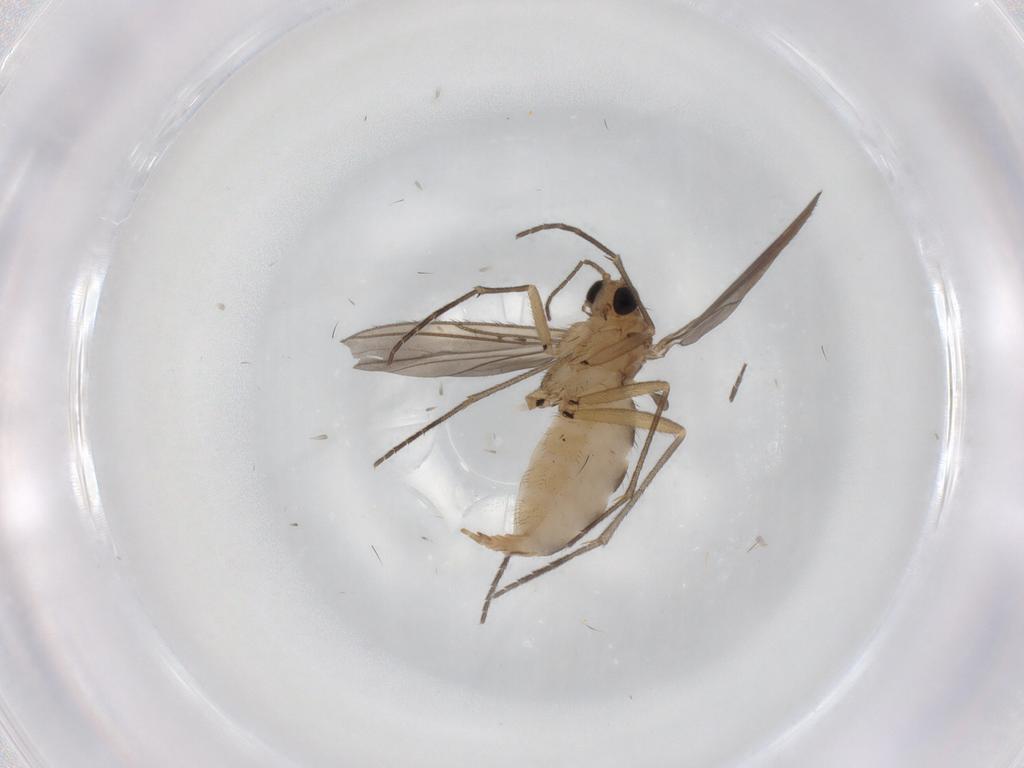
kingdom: Animalia
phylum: Arthropoda
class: Insecta
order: Diptera
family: Sciaridae
